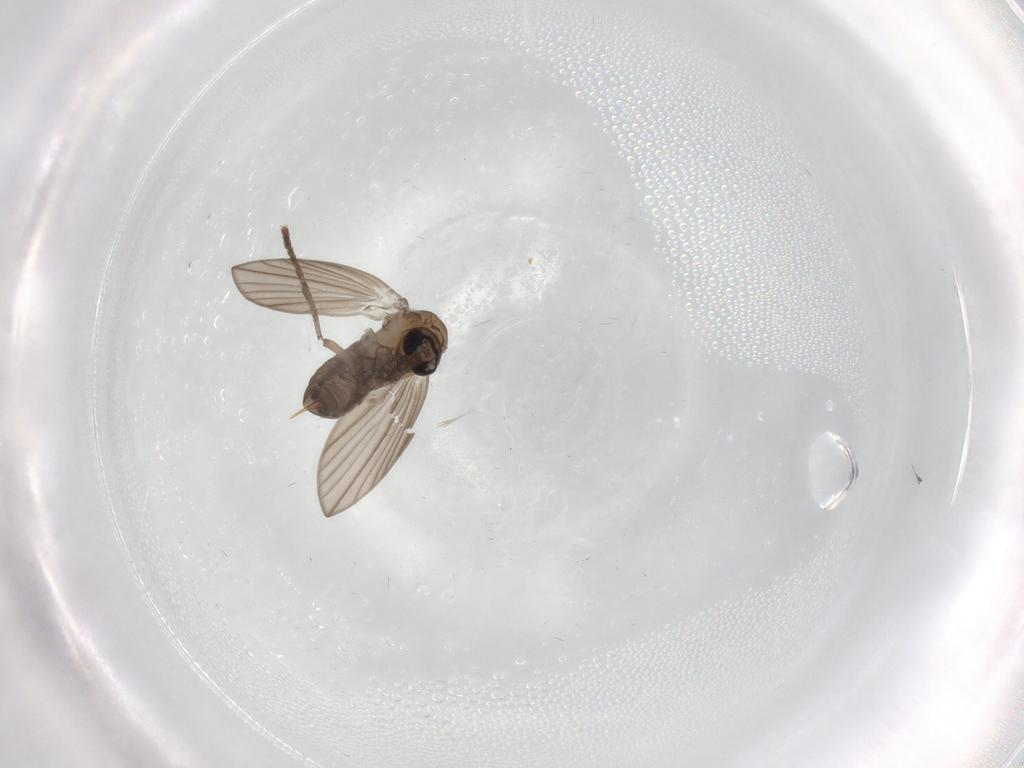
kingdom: Animalia
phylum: Arthropoda
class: Insecta
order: Diptera
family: Psychodidae
